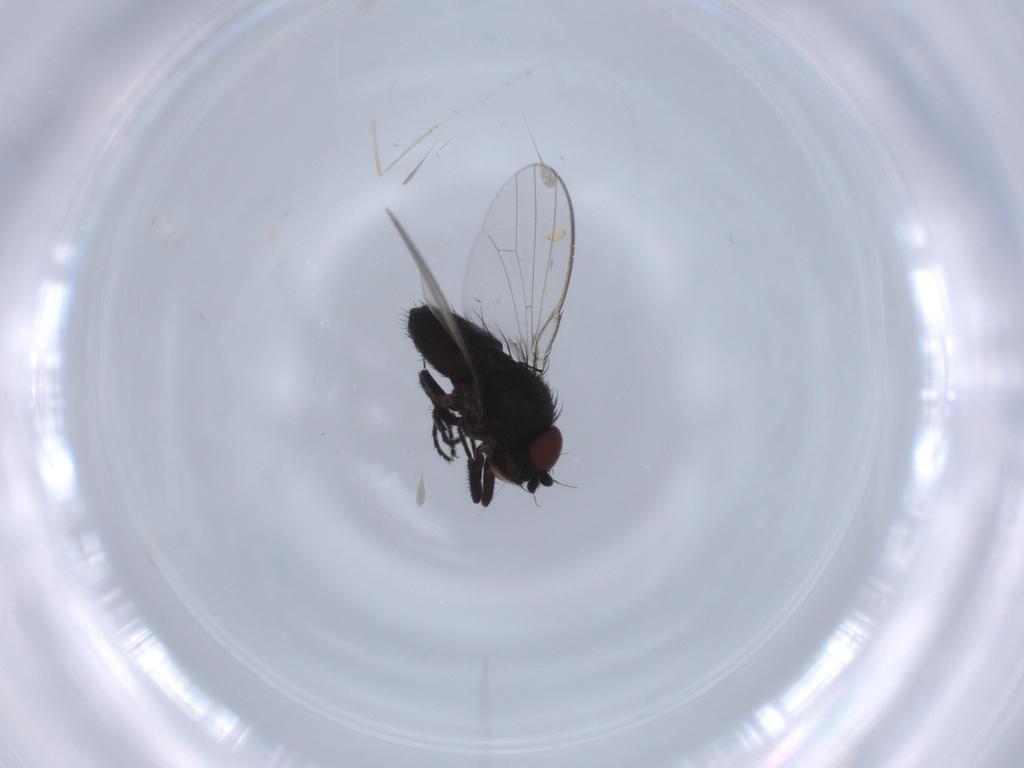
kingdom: Animalia
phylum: Arthropoda
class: Insecta
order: Diptera
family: Milichiidae
